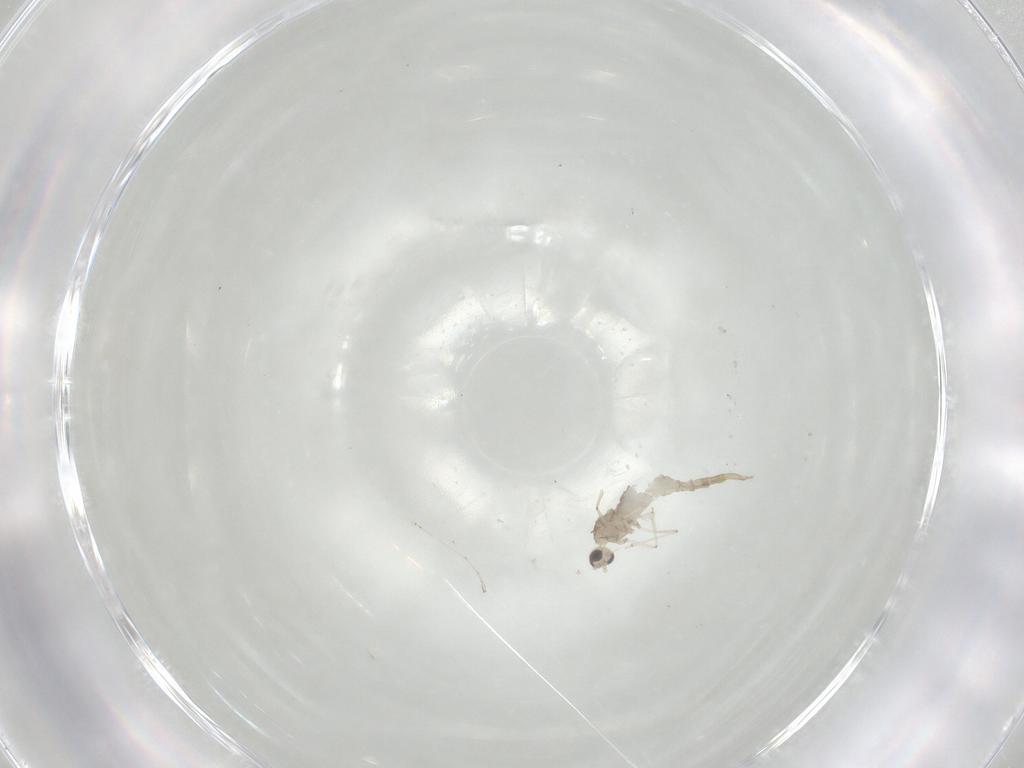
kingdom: Animalia
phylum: Arthropoda
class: Insecta
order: Diptera
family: Cecidomyiidae
